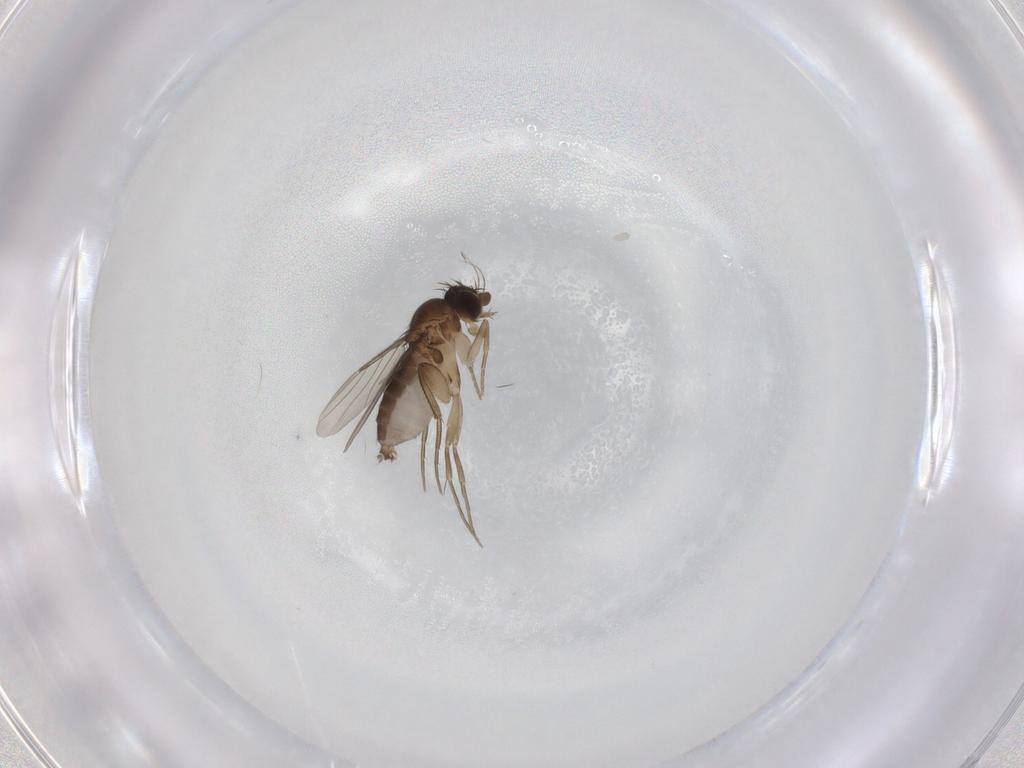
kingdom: Animalia
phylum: Arthropoda
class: Insecta
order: Diptera
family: Phoridae
